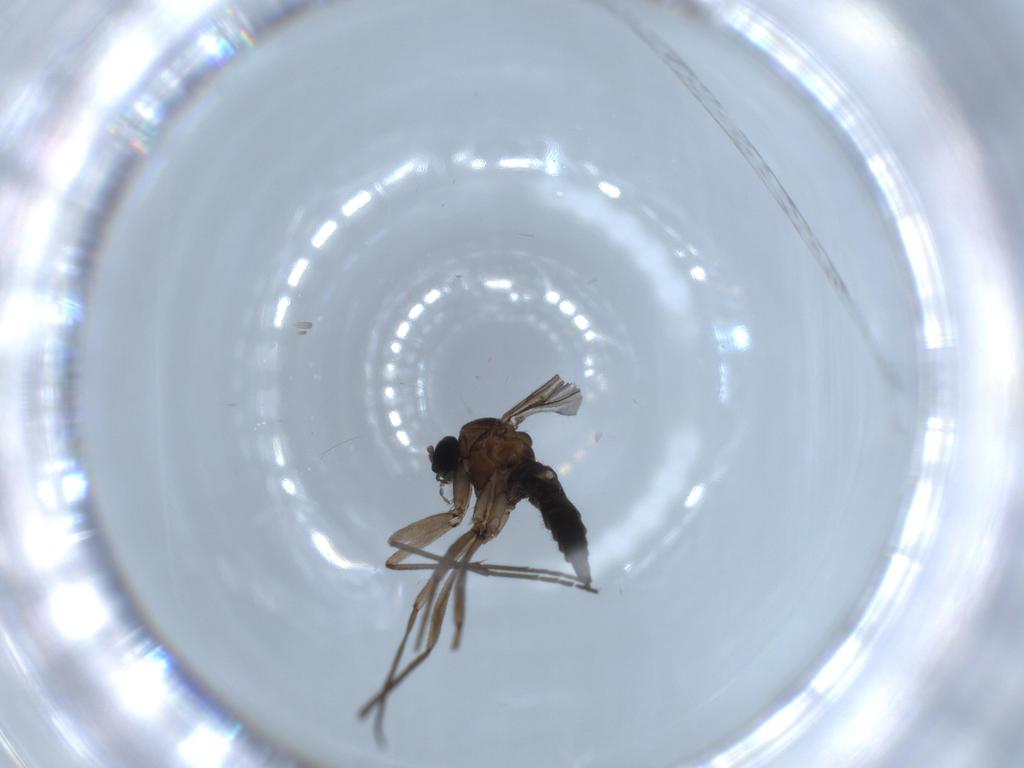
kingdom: Animalia
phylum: Arthropoda
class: Insecta
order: Diptera
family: Sciaridae
